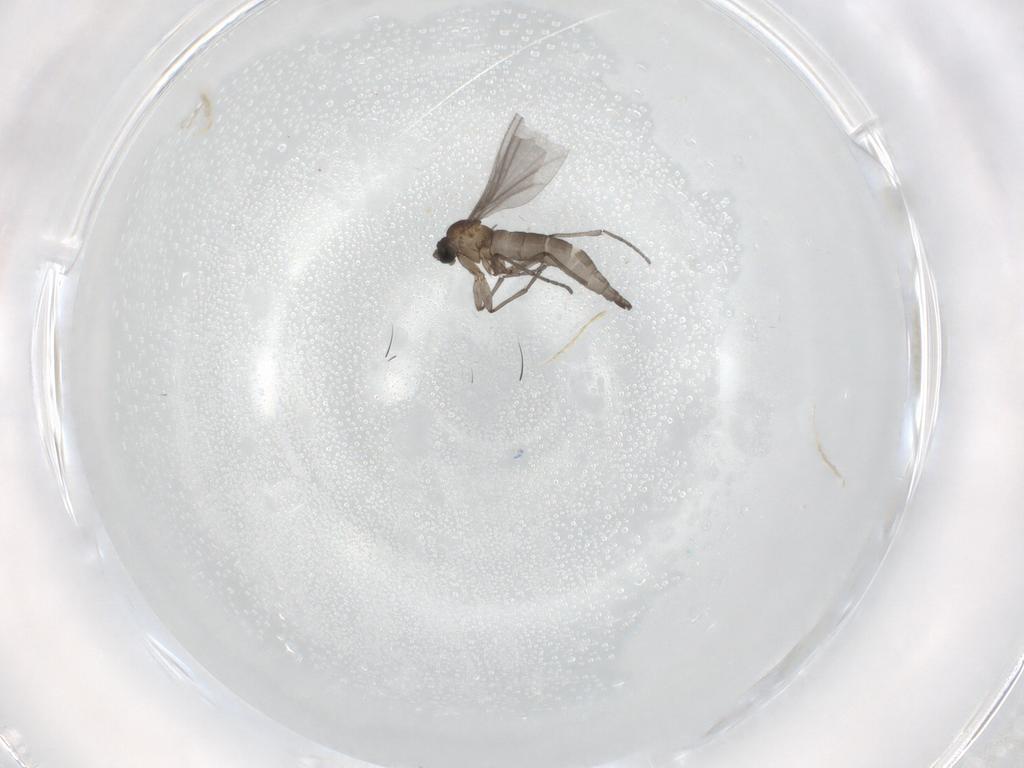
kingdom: Animalia
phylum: Arthropoda
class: Insecta
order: Diptera
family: Sciaridae
